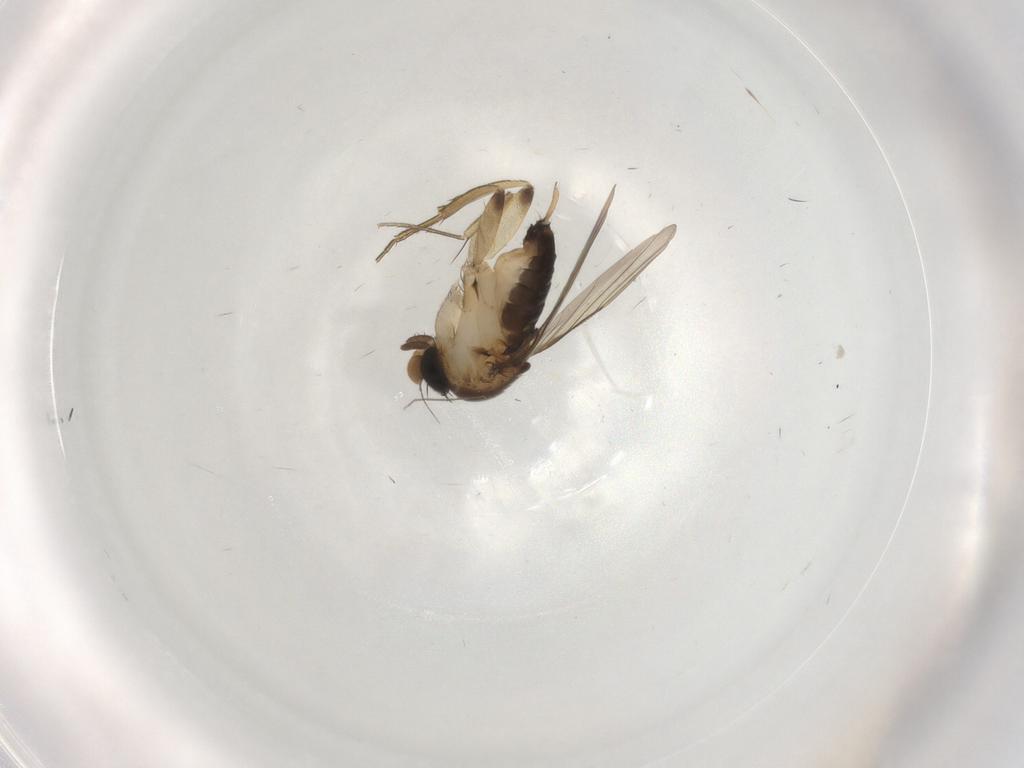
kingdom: Animalia
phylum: Arthropoda
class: Insecta
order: Diptera
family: Phoridae
